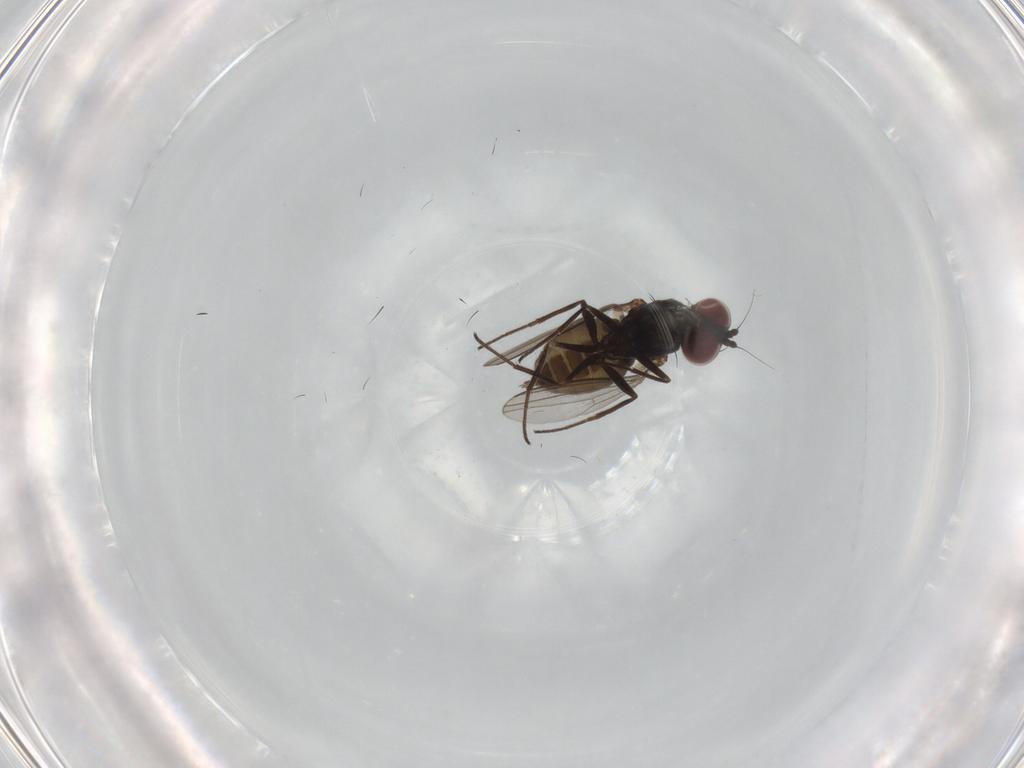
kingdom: Animalia
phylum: Arthropoda
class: Insecta
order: Diptera
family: Dolichopodidae
